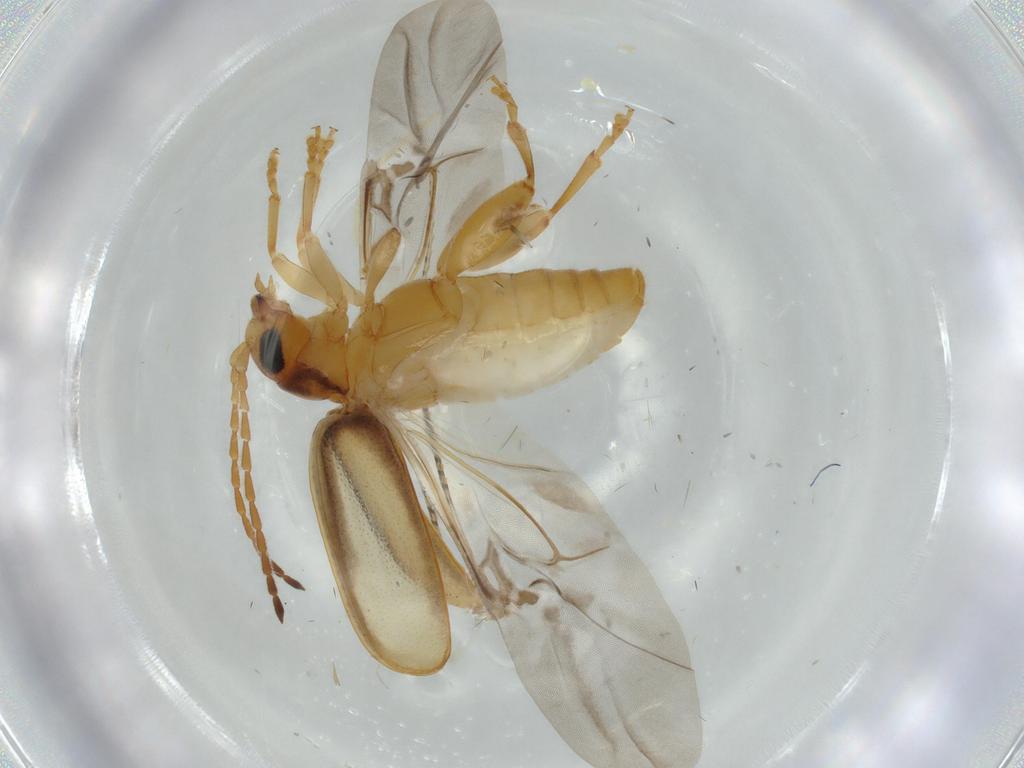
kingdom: Animalia
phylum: Arthropoda
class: Insecta
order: Coleoptera
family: Chrysomelidae
